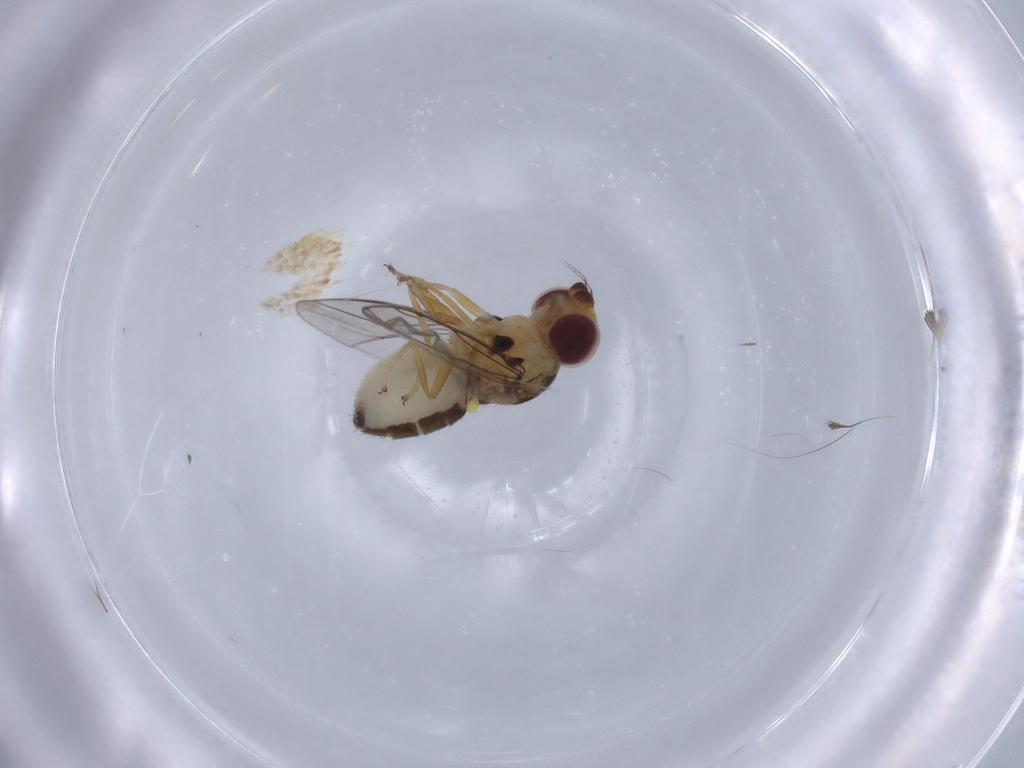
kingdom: Animalia
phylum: Arthropoda
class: Insecta
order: Diptera
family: Chloropidae
